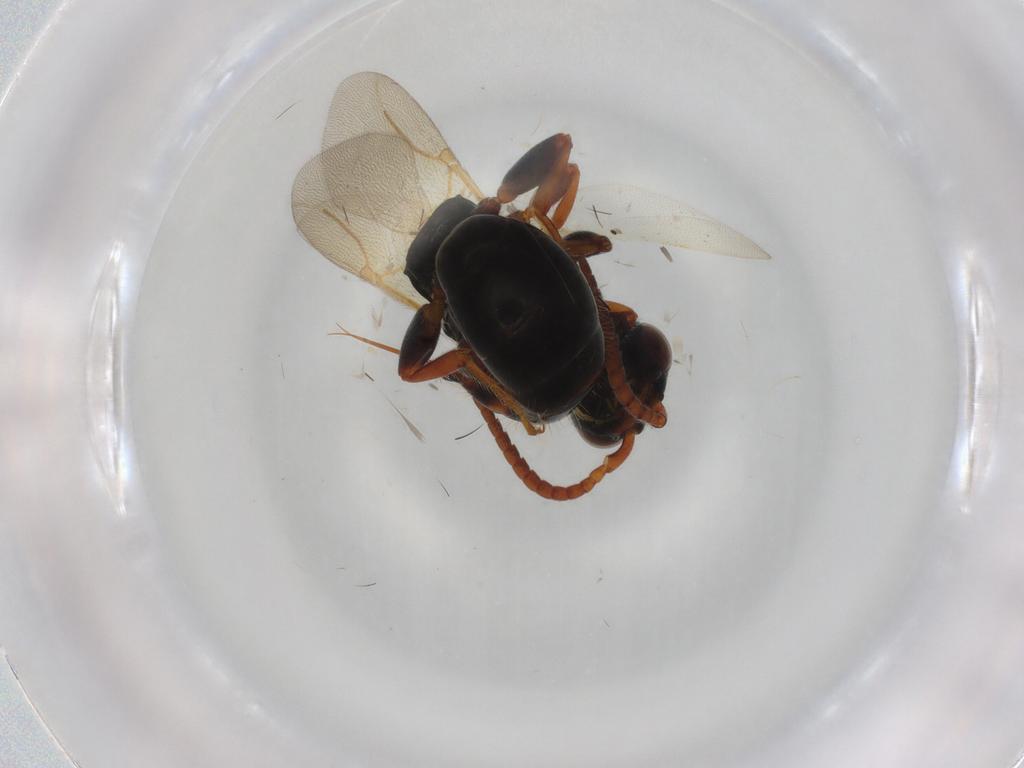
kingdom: Animalia
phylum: Arthropoda
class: Insecta
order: Hymenoptera
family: Bethylidae
